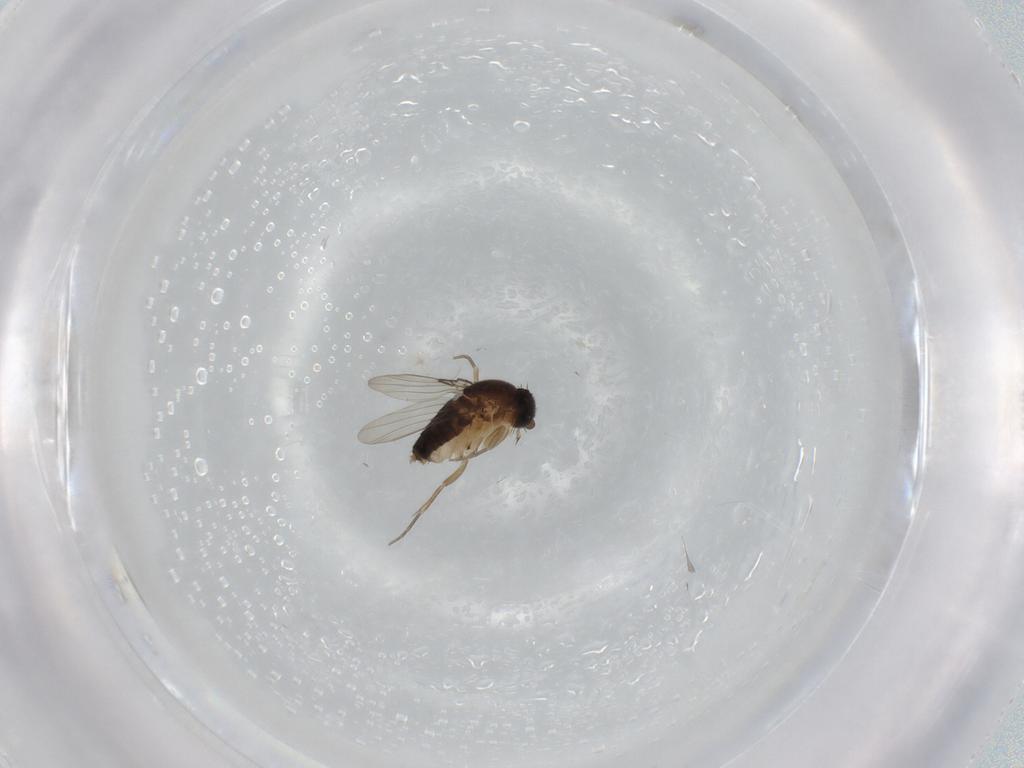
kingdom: Animalia
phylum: Arthropoda
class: Insecta
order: Diptera
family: Phoridae
